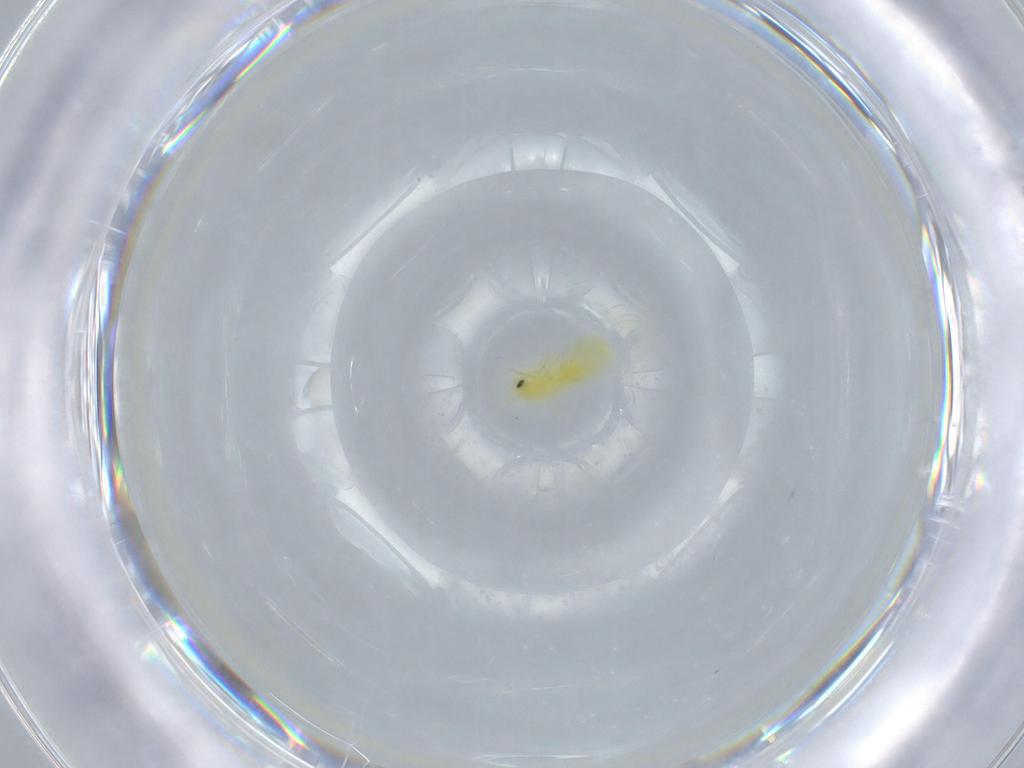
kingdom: Animalia
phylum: Arthropoda
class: Insecta
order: Hemiptera
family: Aleyrodidae
